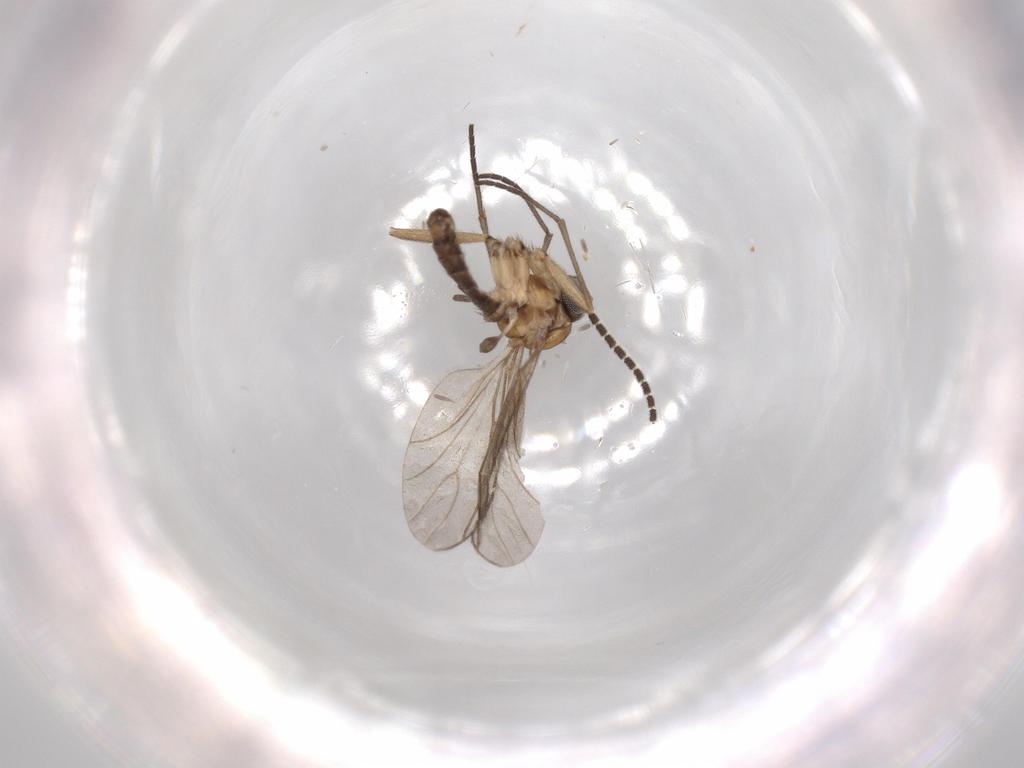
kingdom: Animalia
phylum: Arthropoda
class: Insecta
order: Diptera
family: Sciaridae
